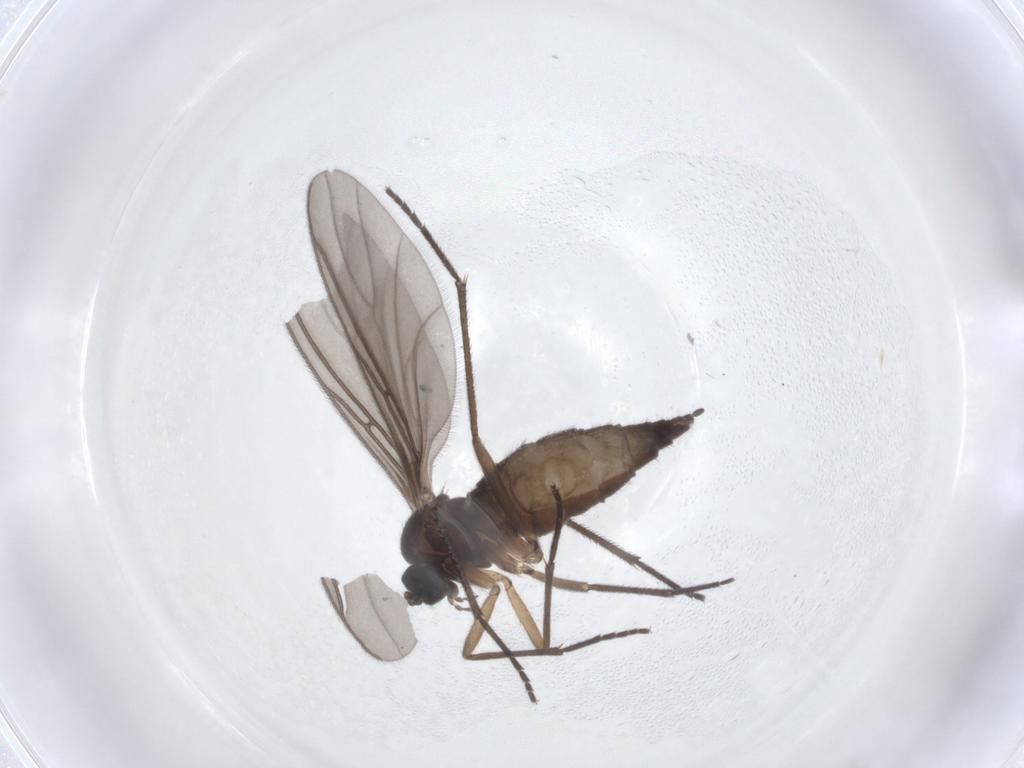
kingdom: Animalia
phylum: Arthropoda
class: Insecta
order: Diptera
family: Sciaridae
